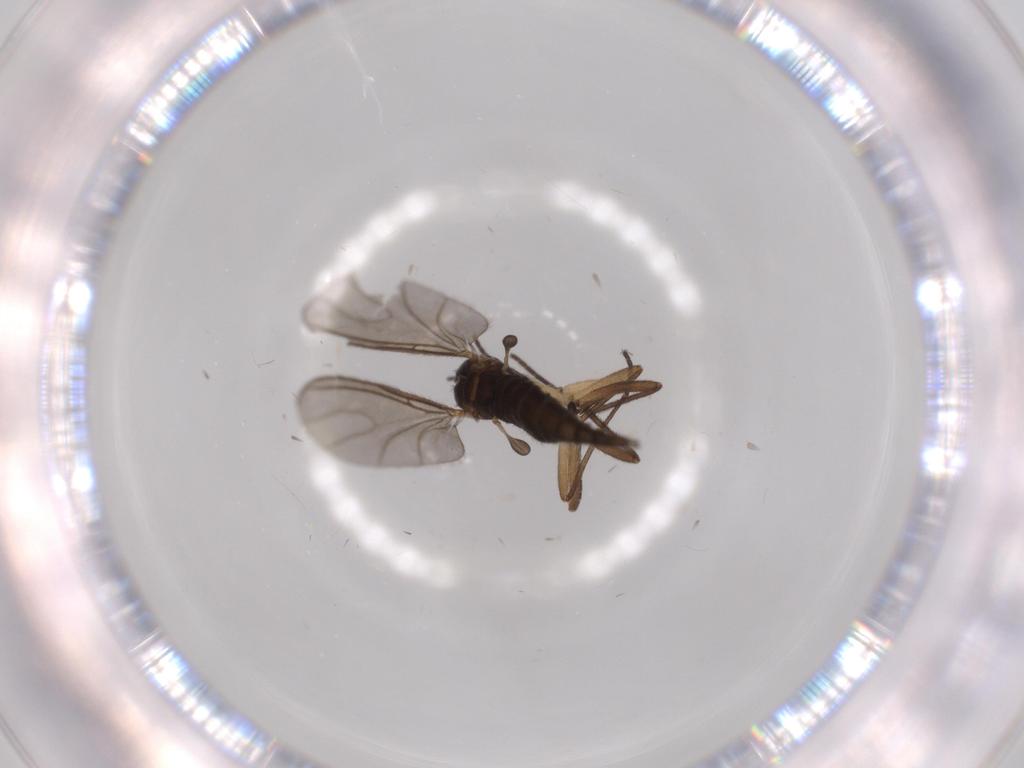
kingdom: Animalia
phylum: Arthropoda
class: Insecta
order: Diptera
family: Sciaridae
